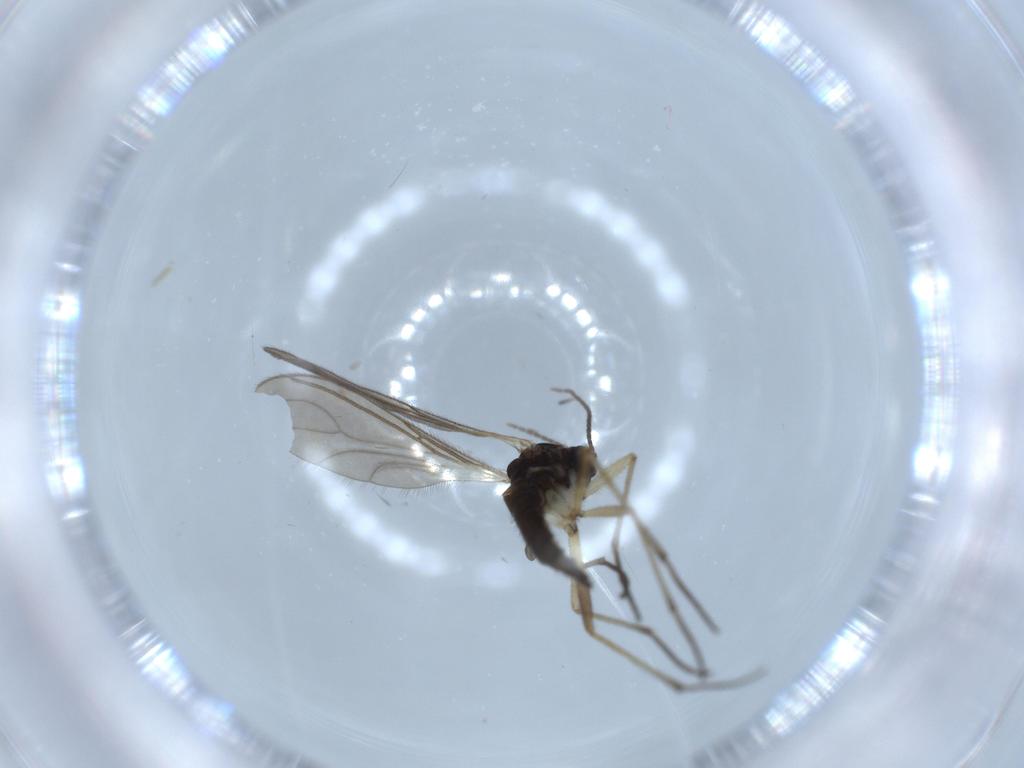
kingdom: Animalia
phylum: Arthropoda
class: Insecta
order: Diptera
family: Sciaridae
